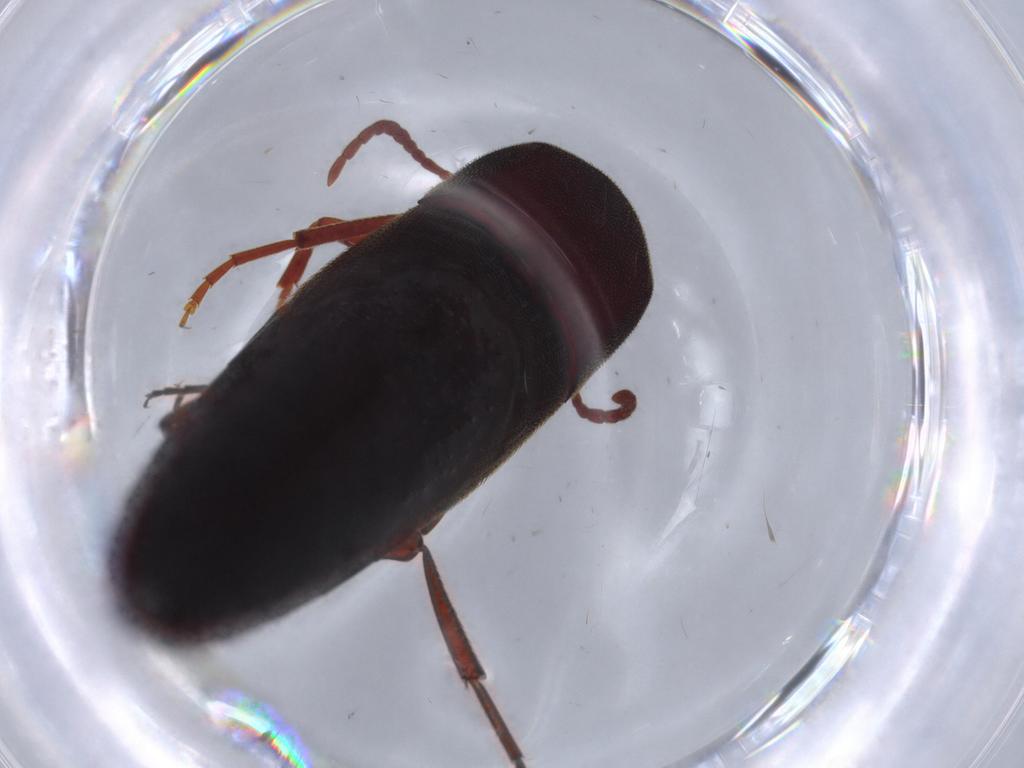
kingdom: Animalia
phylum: Arthropoda
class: Insecta
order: Coleoptera
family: Eucnemidae
